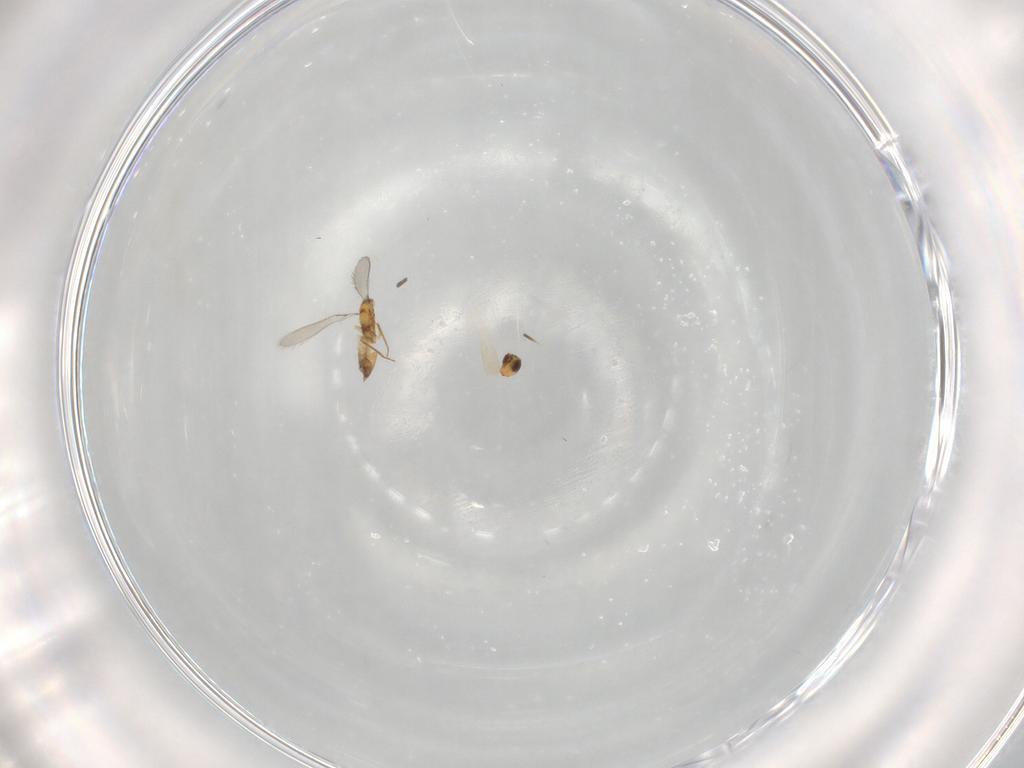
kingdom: Animalia
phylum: Arthropoda
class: Insecta
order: Hymenoptera
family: Mymaridae
